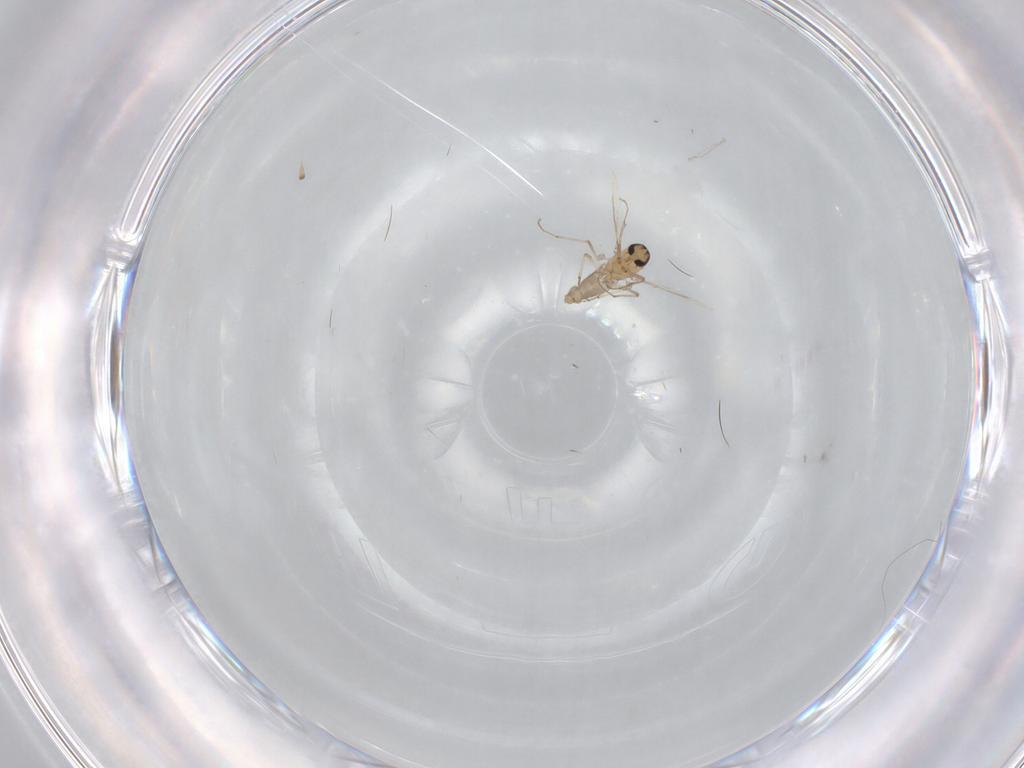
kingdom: Animalia
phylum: Arthropoda
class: Insecta
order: Diptera
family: Ceratopogonidae
